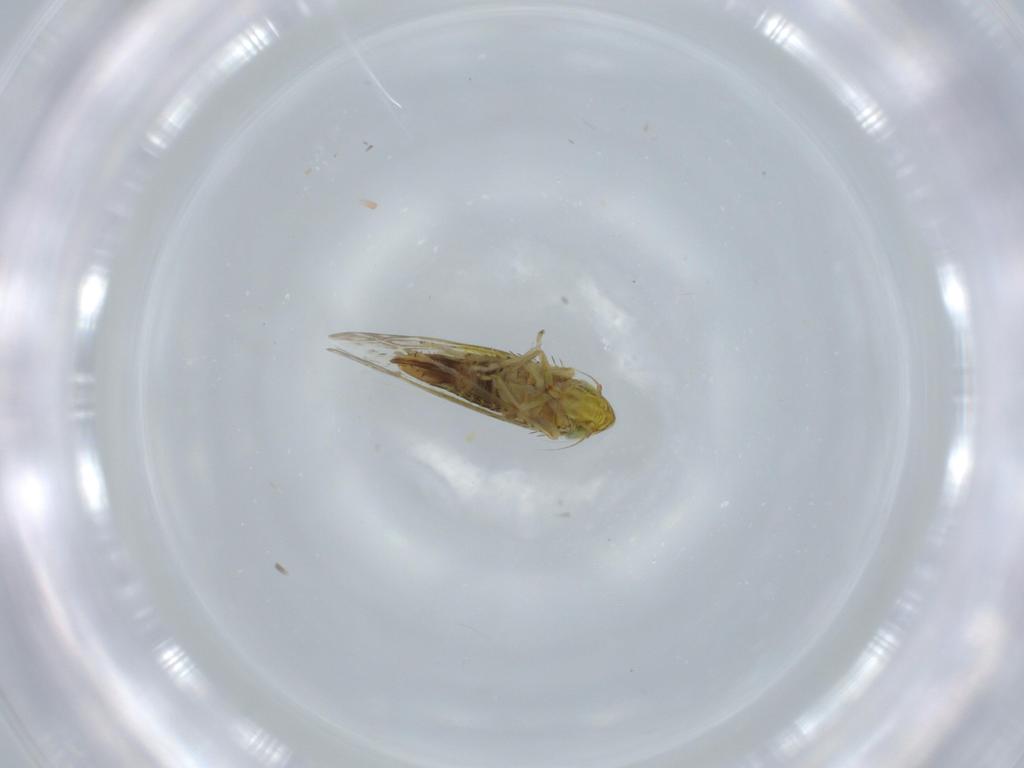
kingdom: Animalia
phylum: Arthropoda
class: Insecta
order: Hemiptera
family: Cicadellidae
